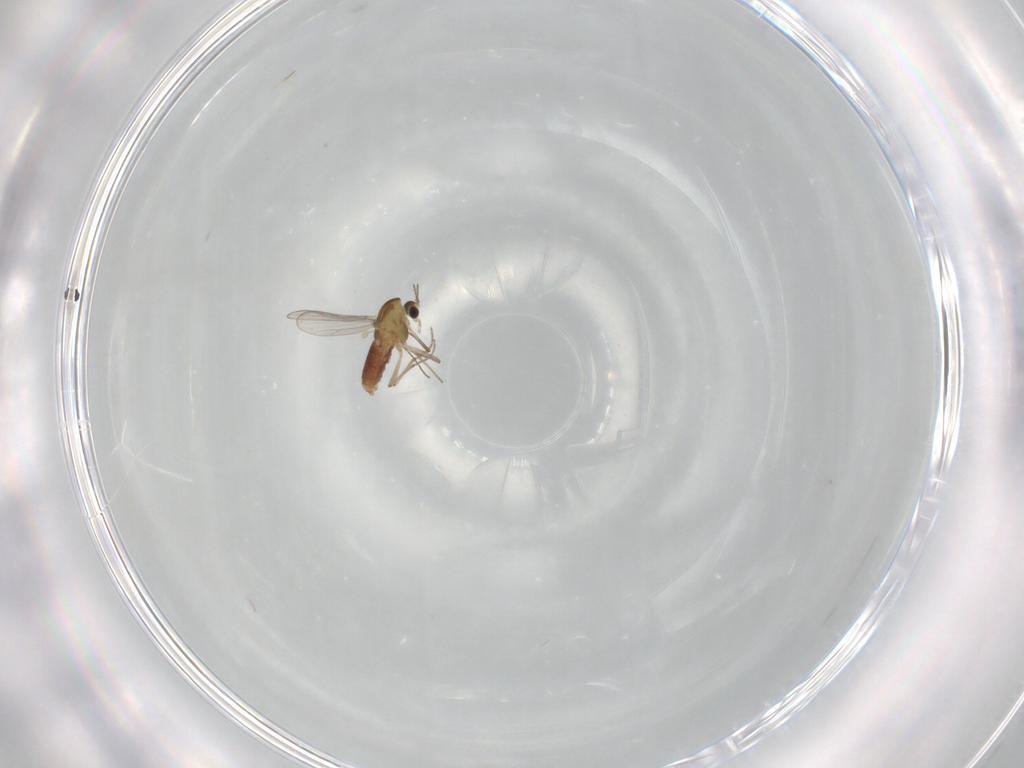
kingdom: Animalia
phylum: Arthropoda
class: Insecta
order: Diptera
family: Chironomidae
